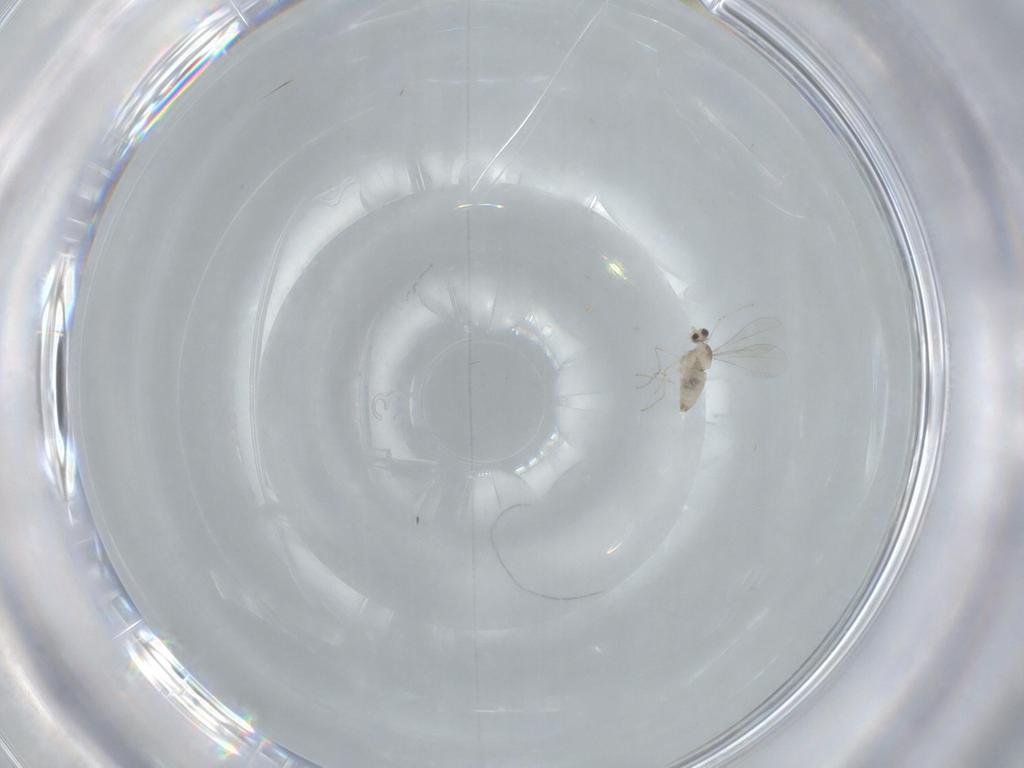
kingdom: Animalia
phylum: Arthropoda
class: Insecta
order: Diptera
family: Cecidomyiidae
